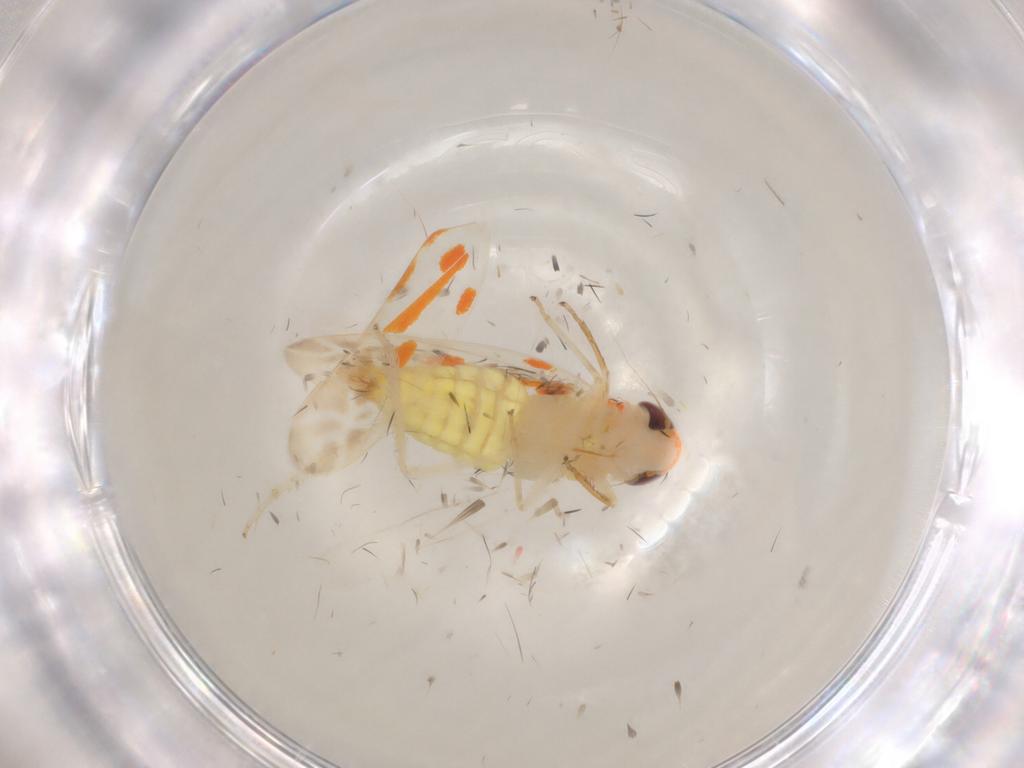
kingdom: Animalia
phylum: Arthropoda
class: Insecta
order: Hemiptera
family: Cicadellidae
